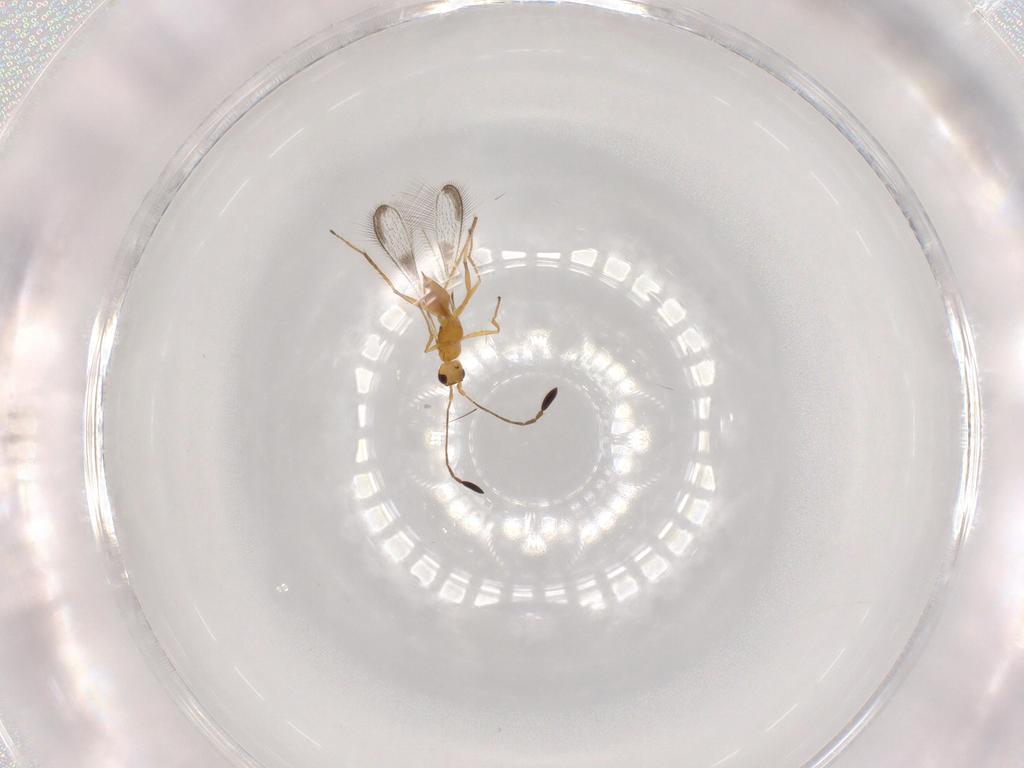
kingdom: Animalia
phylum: Arthropoda
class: Insecta
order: Hymenoptera
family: Mymaridae
